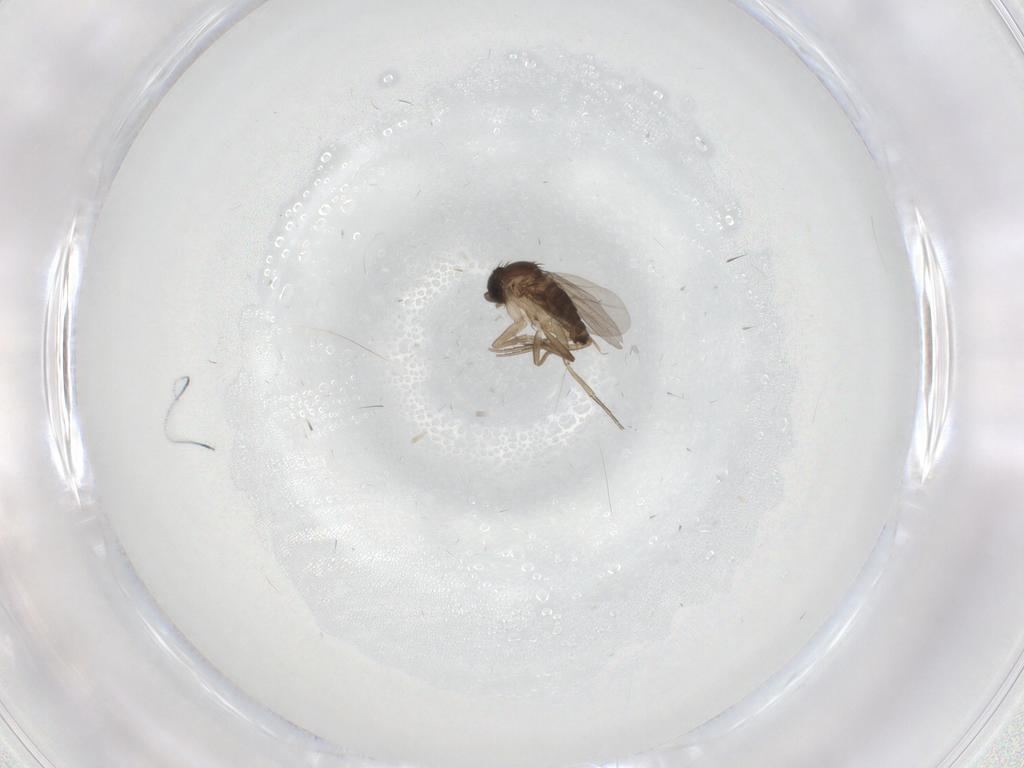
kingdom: Animalia
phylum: Arthropoda
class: Insecta
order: Diptera
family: Phoridae
